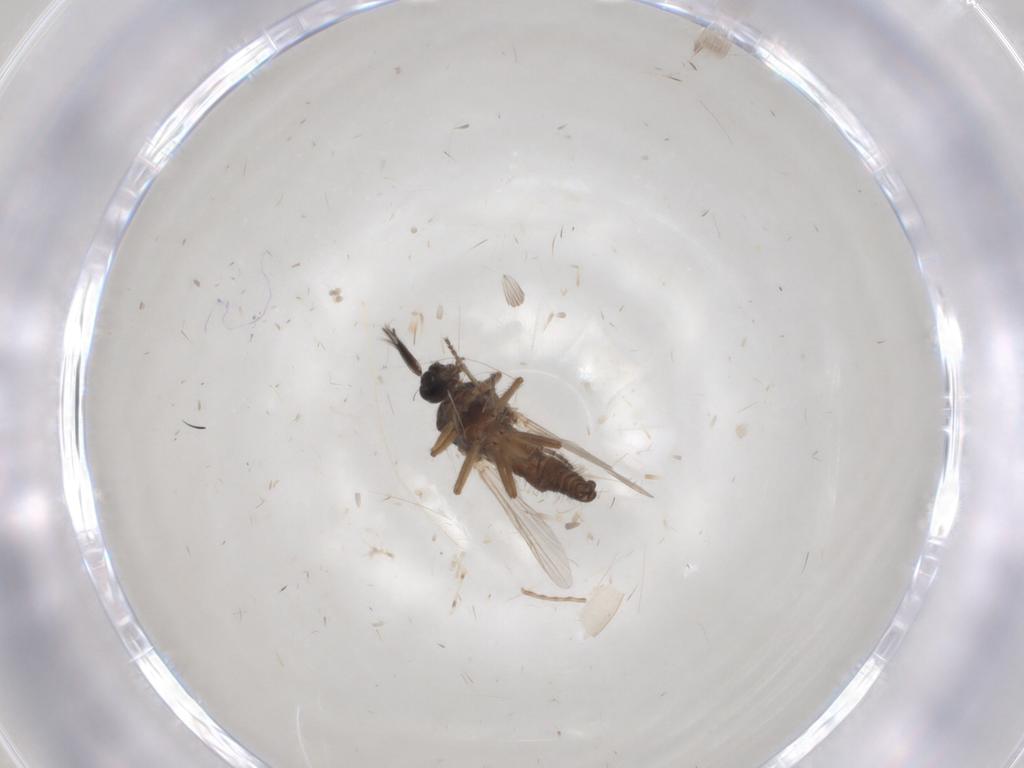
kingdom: Animalia
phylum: Arthropoda
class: Insecta
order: Diptera
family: Ceratopogonidae
